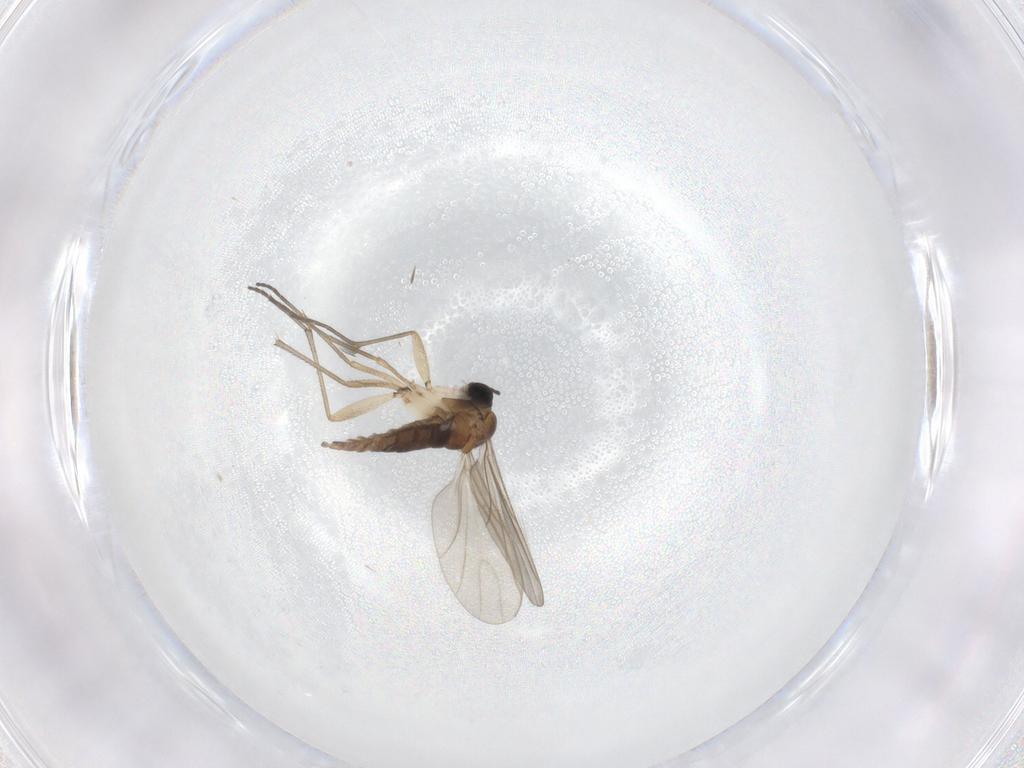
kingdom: Animalia
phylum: Arthropoda
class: Insecta
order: Diptera
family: Sciaridae
